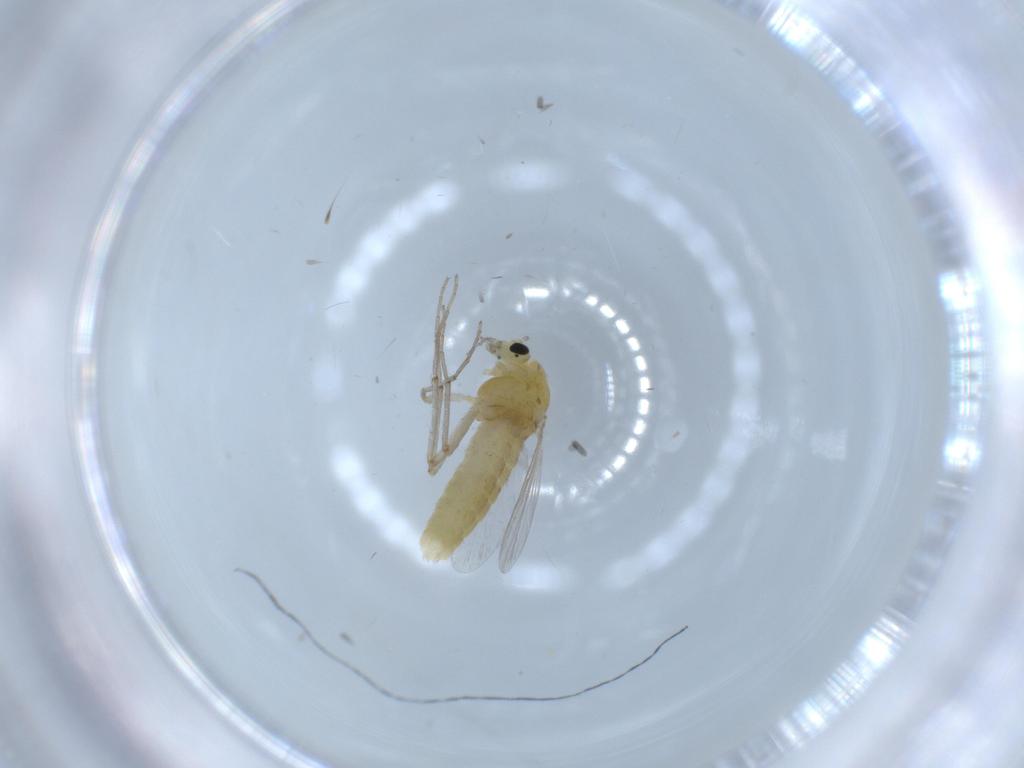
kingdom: Animalia
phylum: Arthropoda
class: Insecta
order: Diptera
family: Chironomidae
